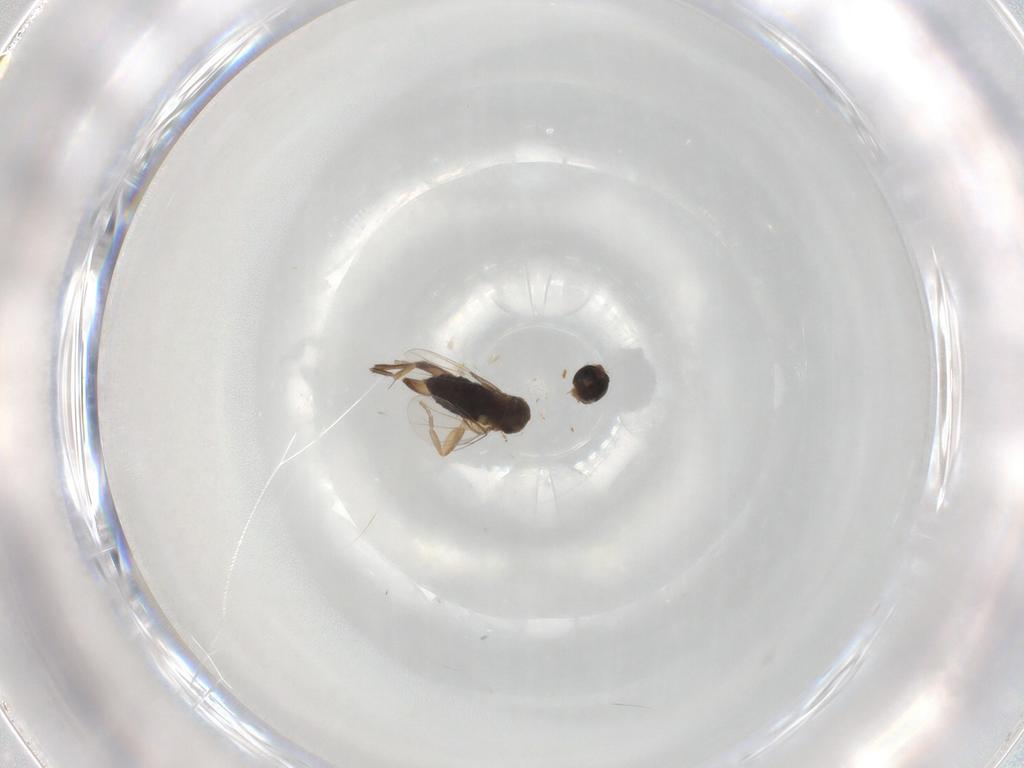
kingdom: Animalia
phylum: Arthropoda
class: Insecta
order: Diptera
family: Phoridae
